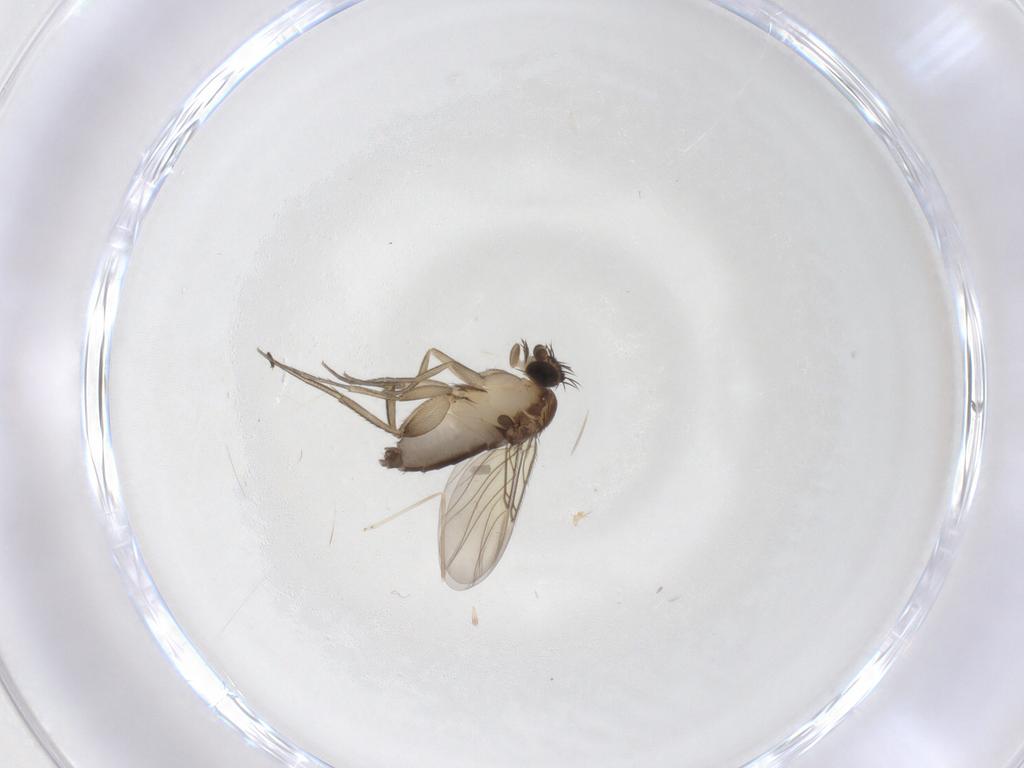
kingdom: Animalia
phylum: Arthropoda
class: Insecta
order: Diptera
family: Phoridae
